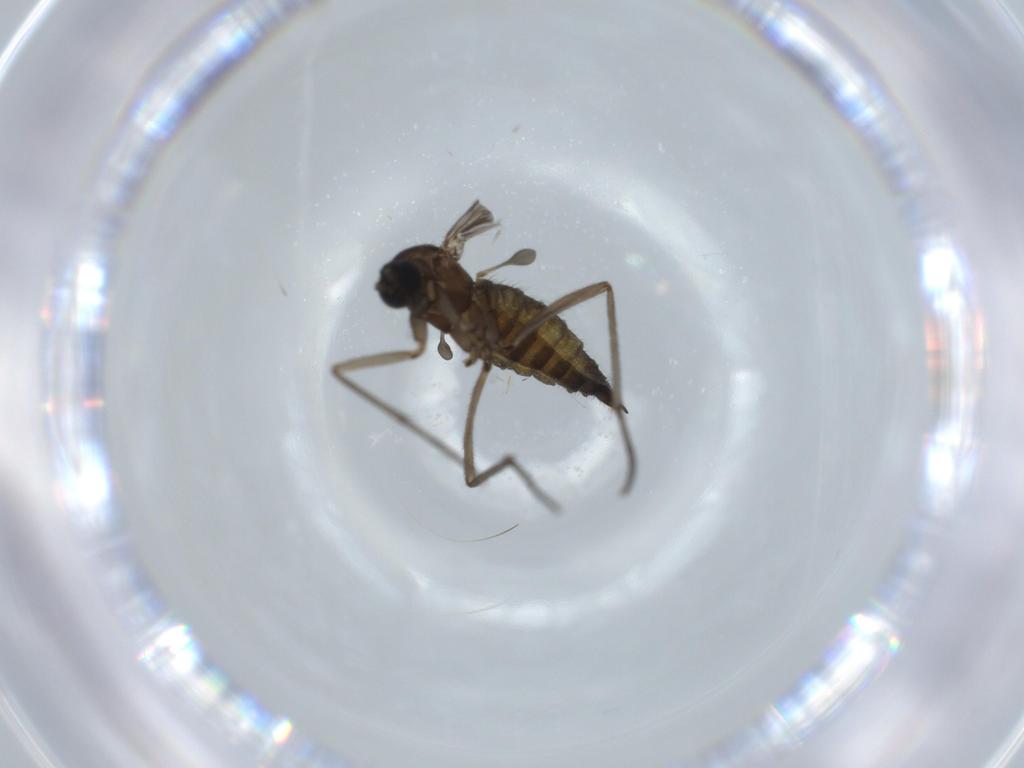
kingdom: Animalia
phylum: Arthropoda
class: Insecta
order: Diptera
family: Sciaridae
